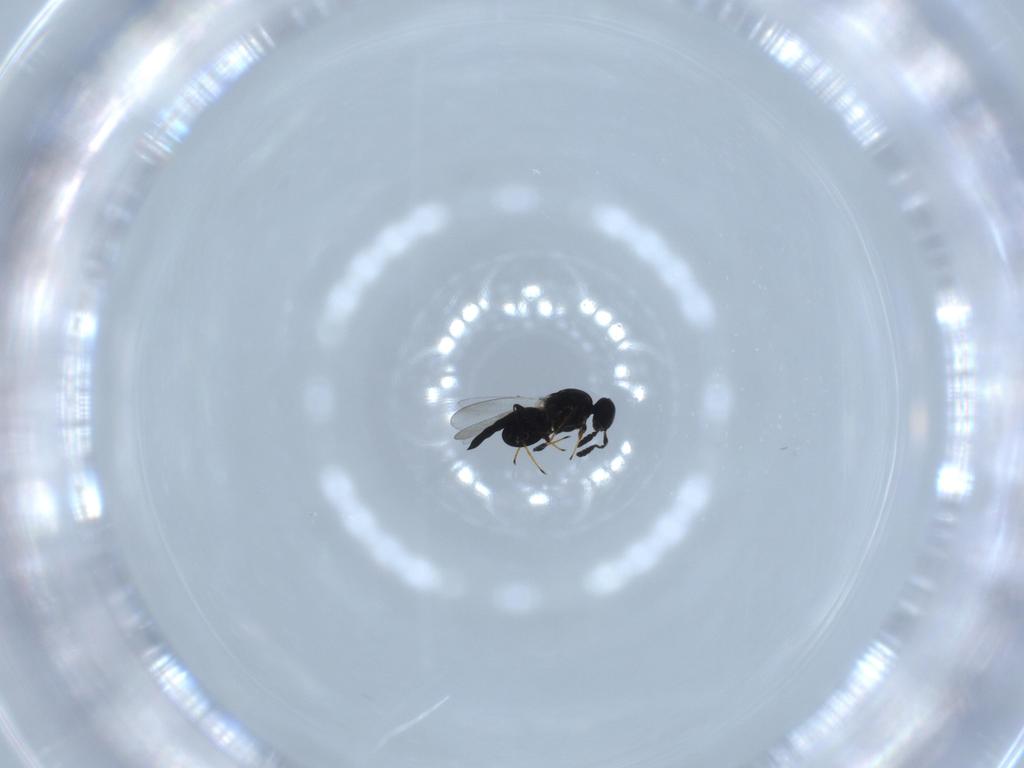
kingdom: Animalia
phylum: Arthropoda
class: Insecta
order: Hymenoptera
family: Platygastridae
